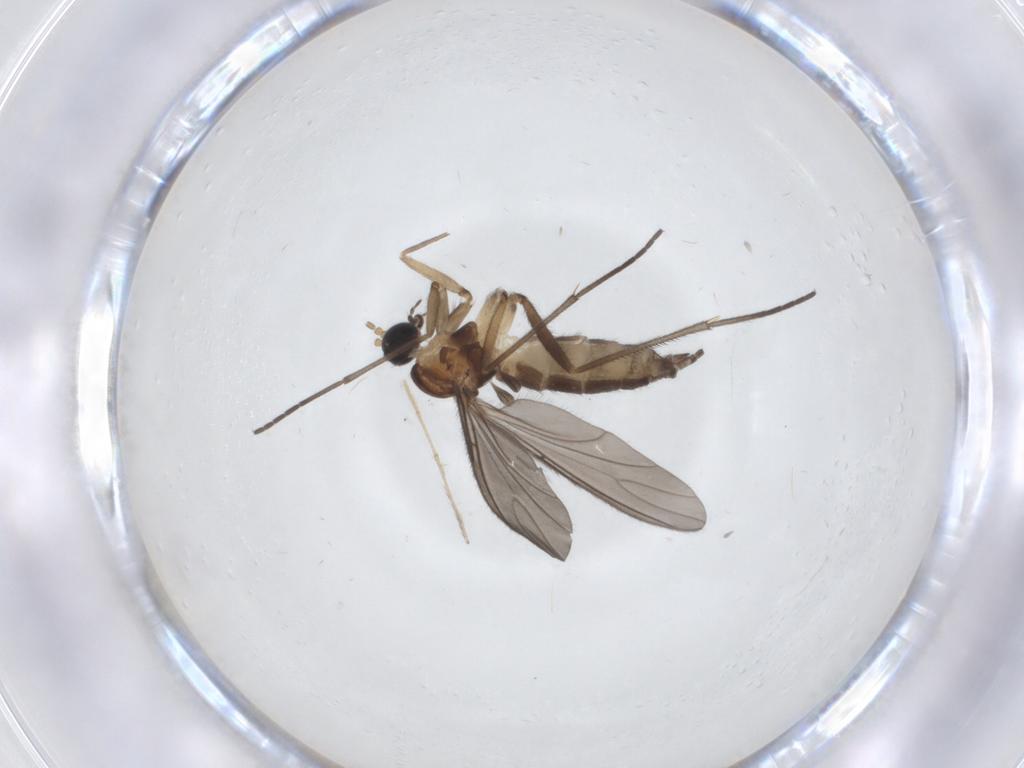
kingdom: Animalia
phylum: Arthropoda
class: Insecta
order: Diptera
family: Sciaridae
